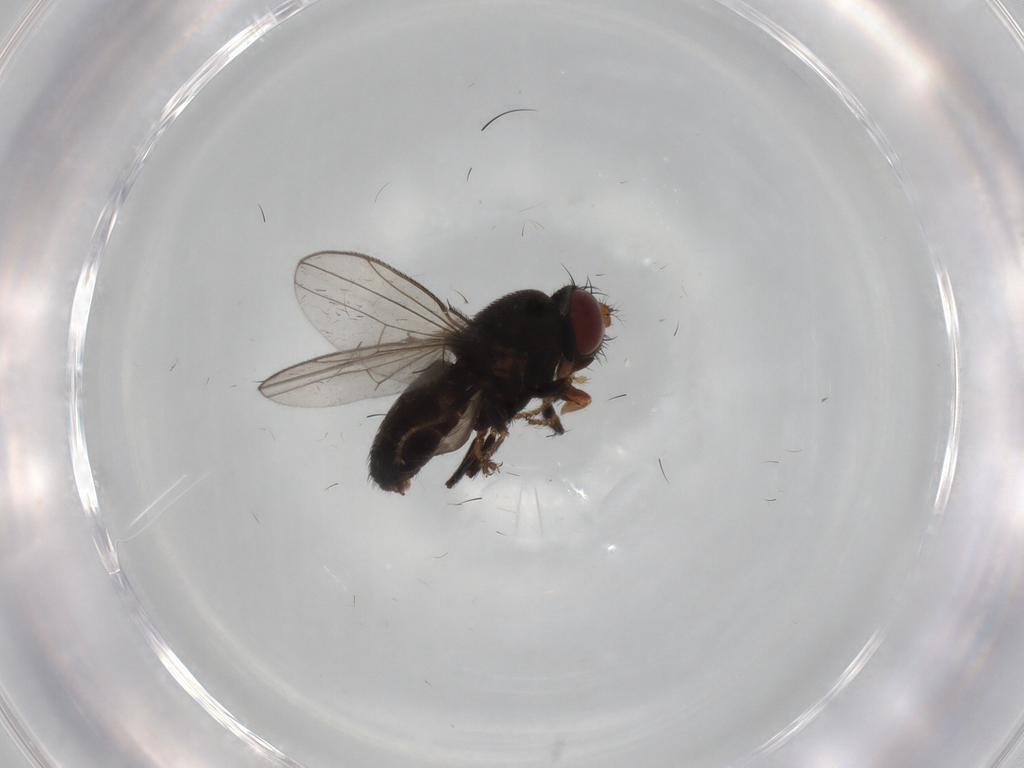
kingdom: Animalia
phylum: Arthropoda
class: Insecta
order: Diptera
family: Ephydridae
